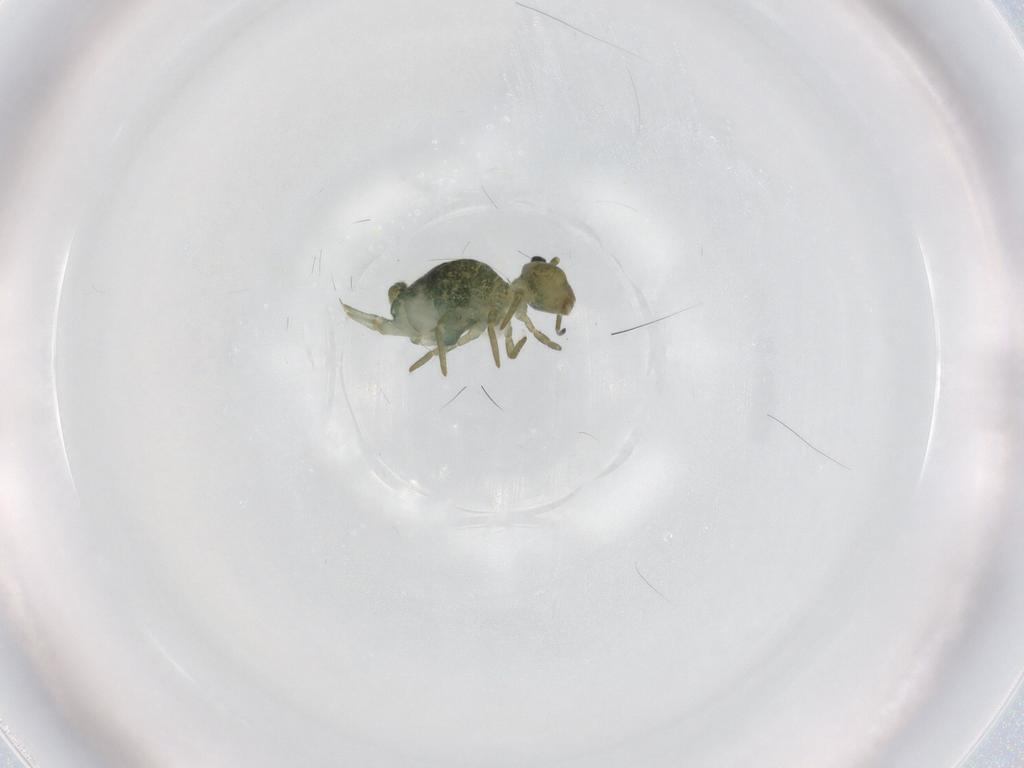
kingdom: Animalia
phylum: Arthropoda
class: Collembola
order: Symphypleona
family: Sminthuridae
